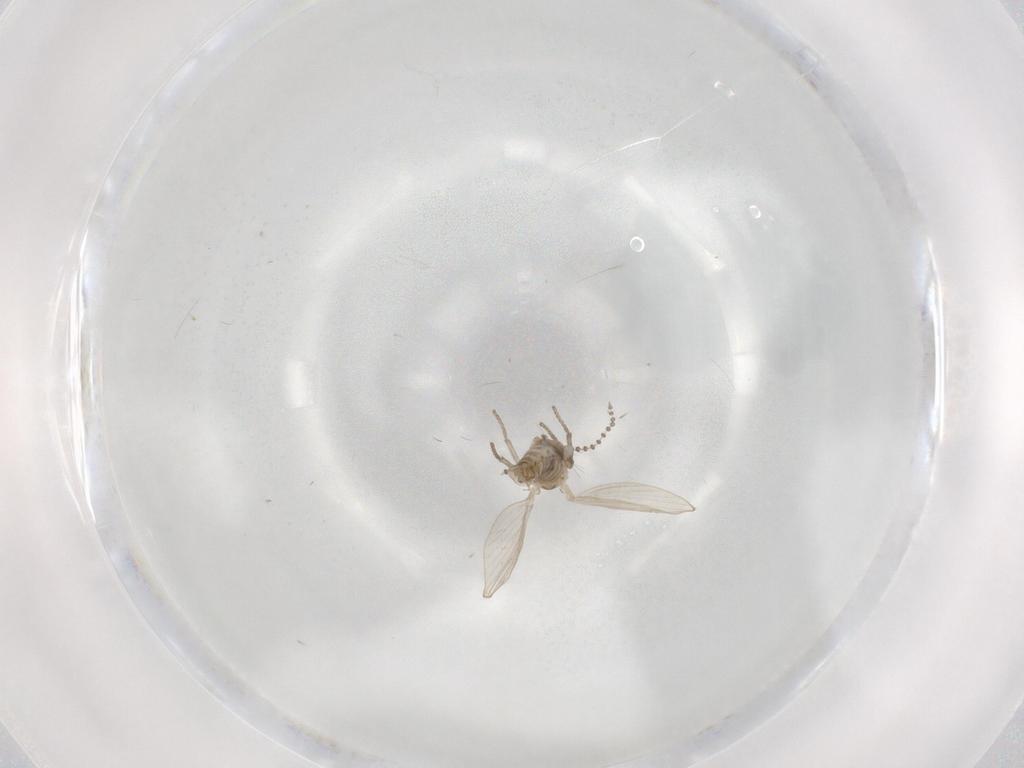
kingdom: Animalia
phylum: Arthropoda
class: Insecta
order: Diptera
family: Psychodidae
